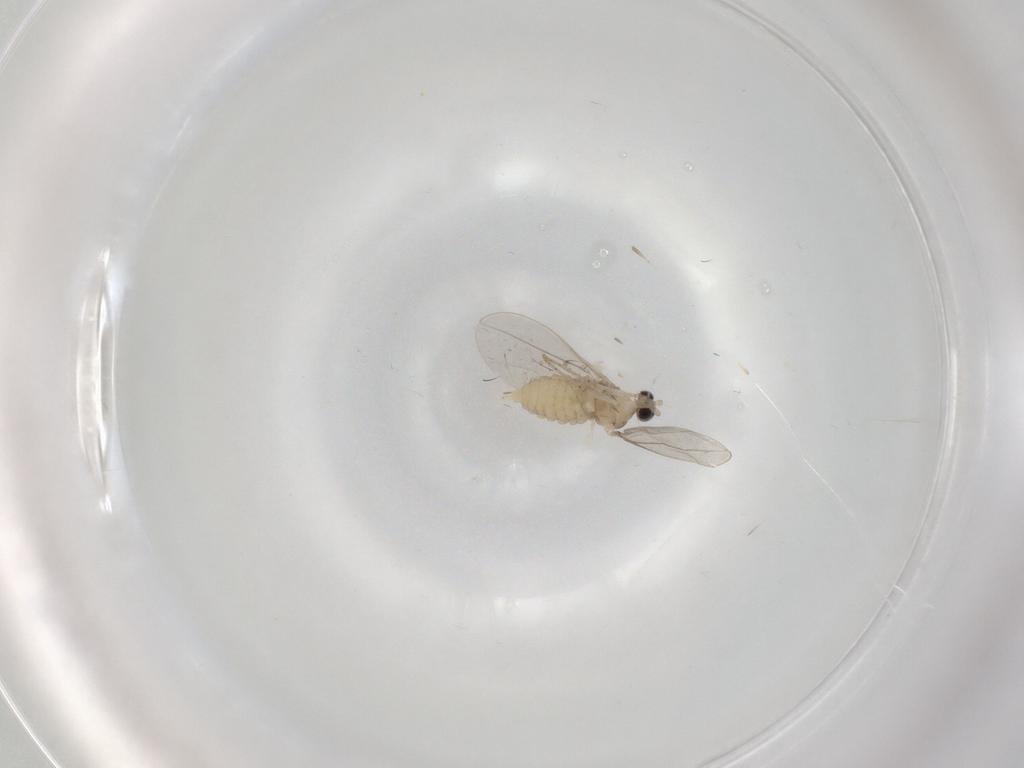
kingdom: Animalia
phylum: Arthropoda
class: Insecta
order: Diptera
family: Cecidomyiidae
